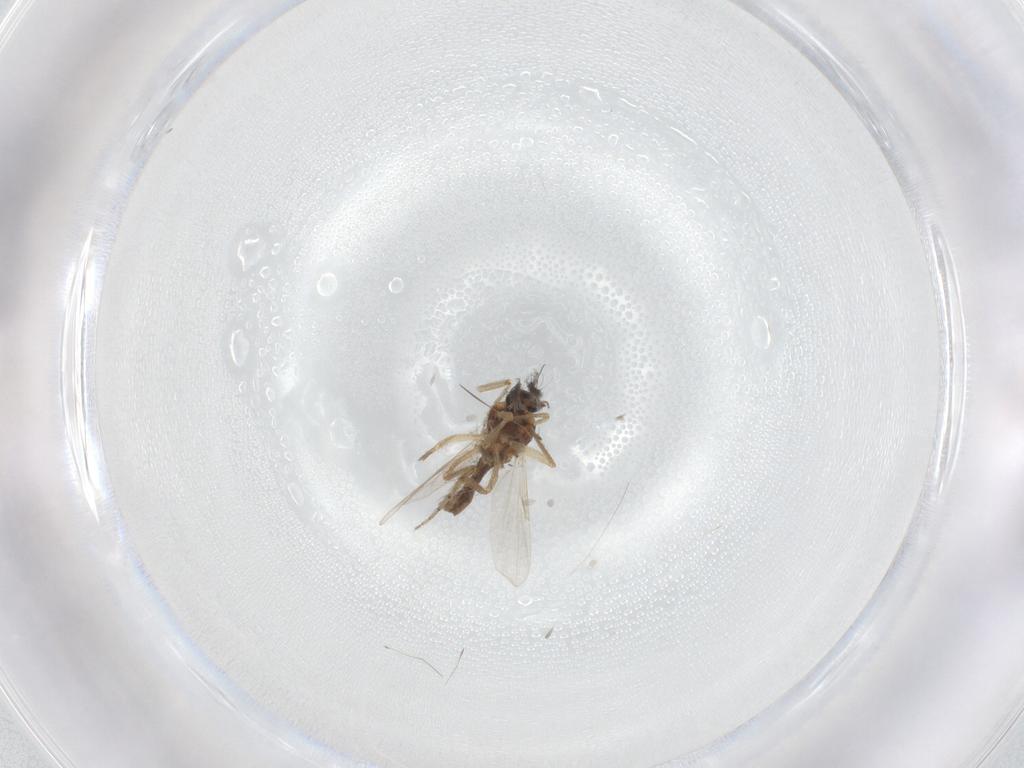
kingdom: Animalia
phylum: Arthropoda
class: Insecta
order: Diptera
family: Ceratopogonidae
